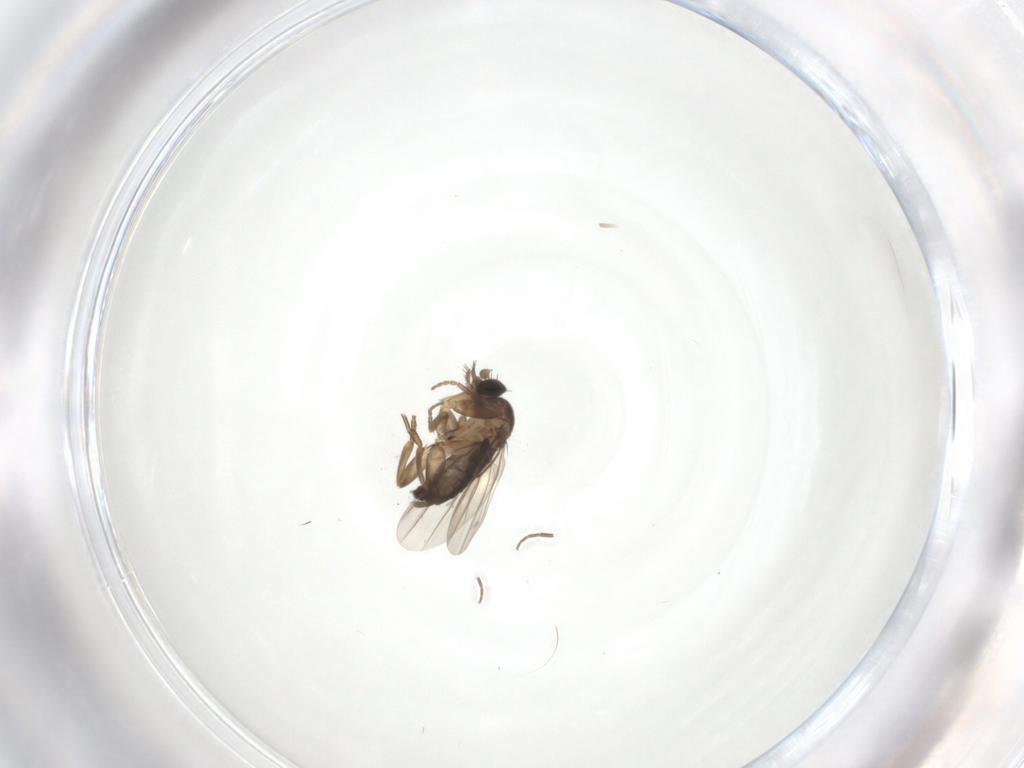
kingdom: Animalia
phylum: Arthropoda
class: Insecta
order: Diptera
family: Phoridae
